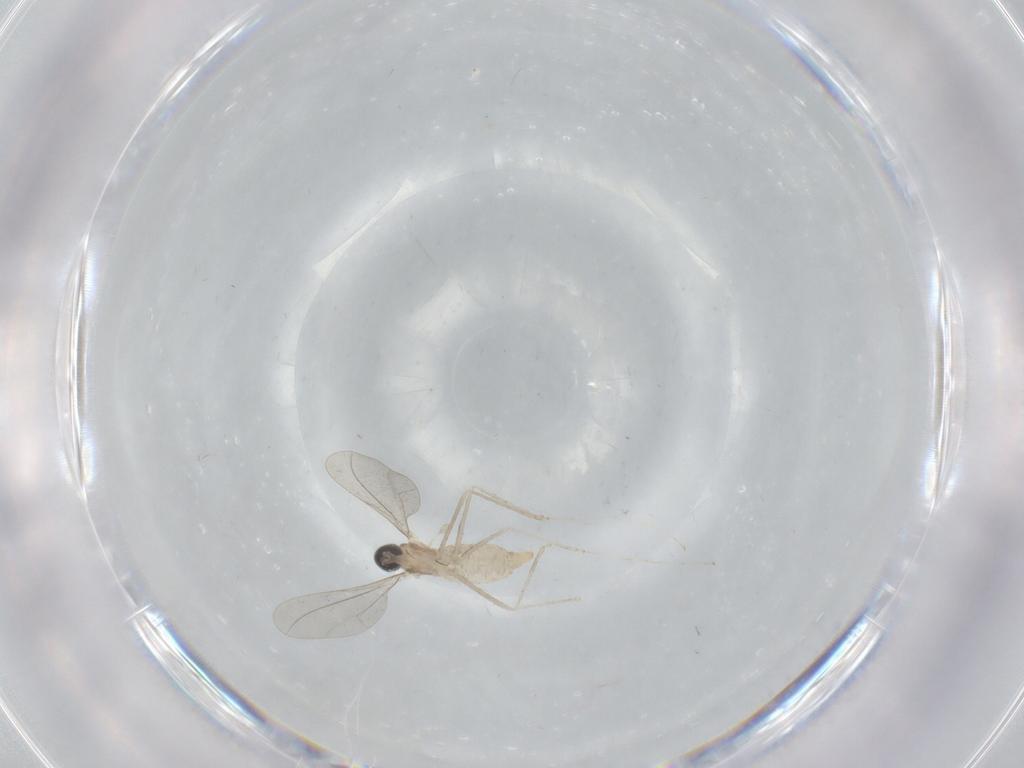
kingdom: Animalia
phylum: Arthropoda
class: Insecta
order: Diptera
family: Cecidomyiidae
